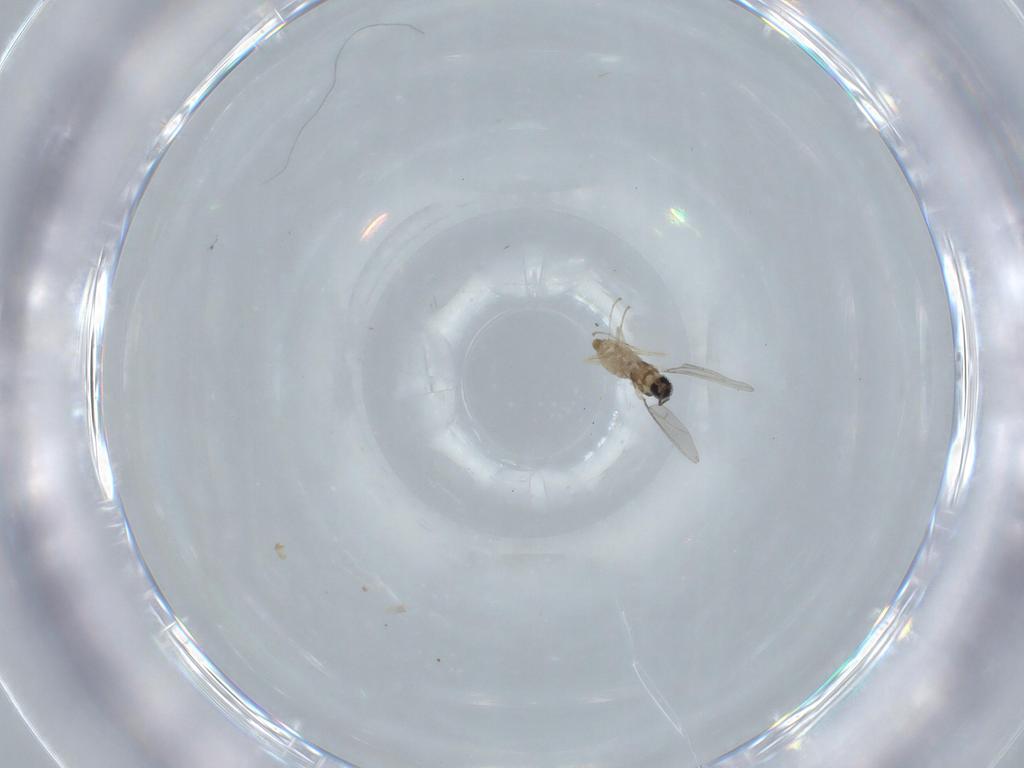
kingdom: Animalia
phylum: Arthropoda
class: Insecta
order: Diptera
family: Cecidomyiidae
